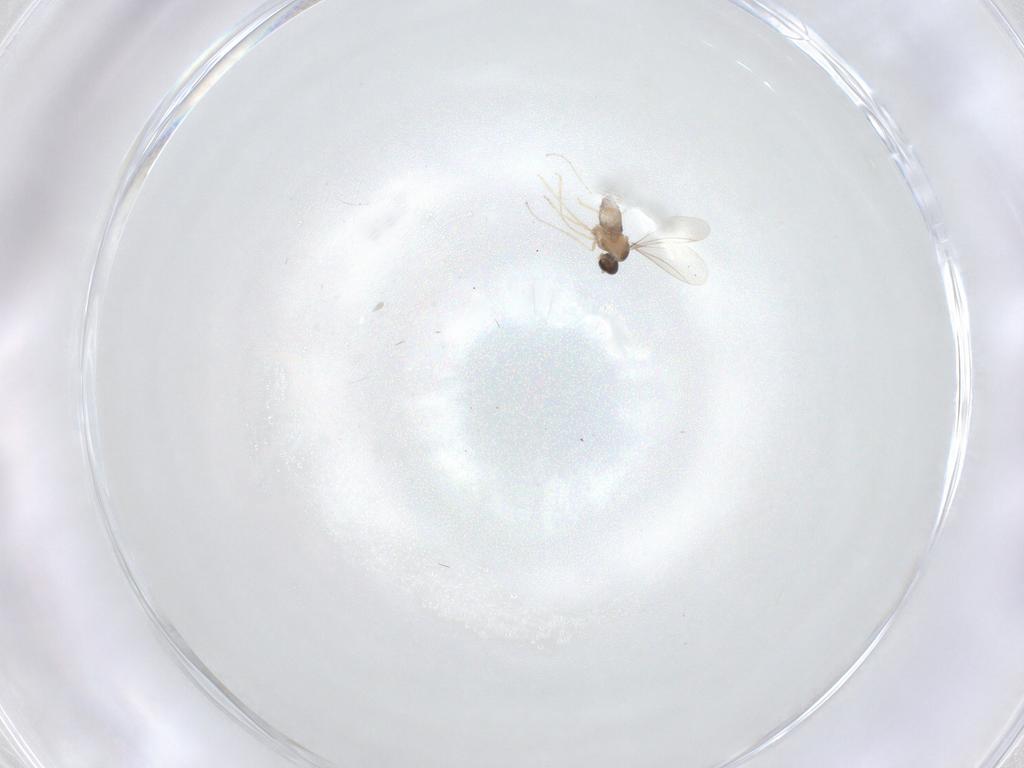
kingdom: Animalia
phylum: Arthropoda
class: Insecta
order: Diptera
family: Cecidomyiidae
